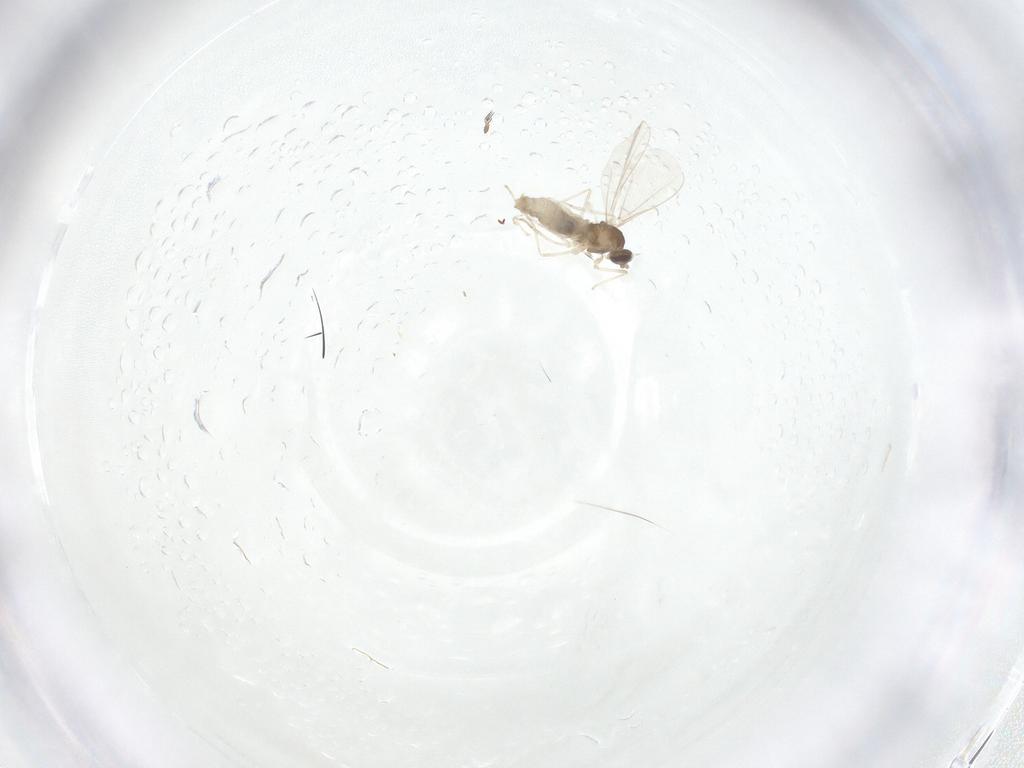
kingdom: Animalia
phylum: Arthropoda
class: Insecta
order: Diptera
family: Cecidomyiidae
